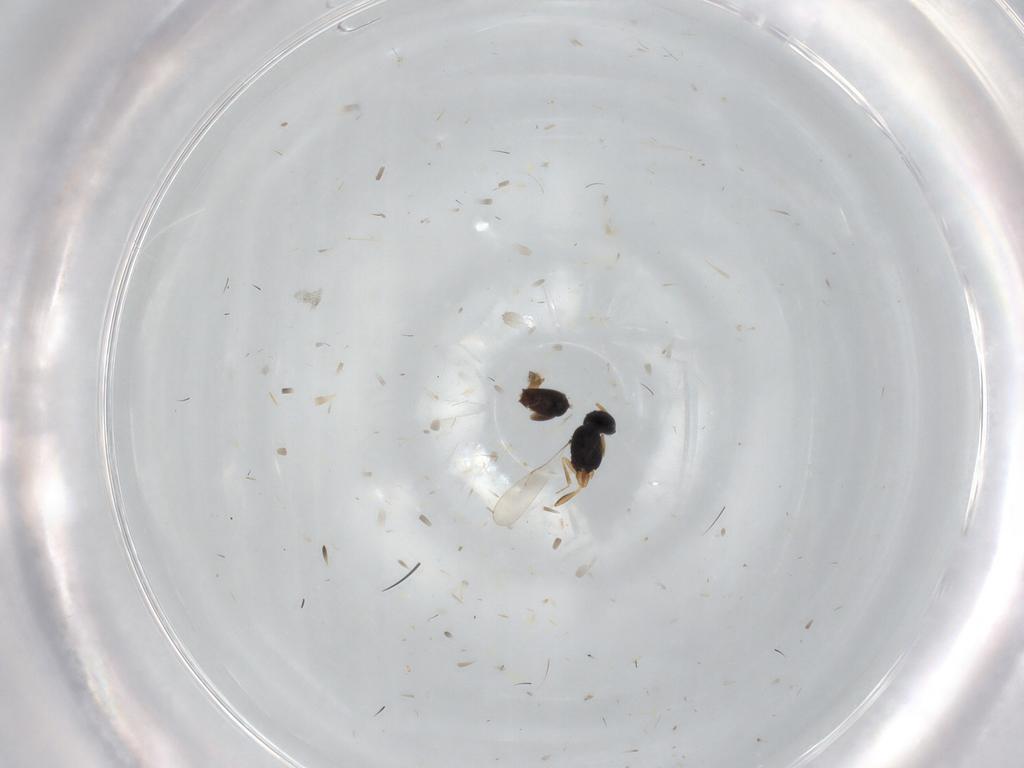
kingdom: Animalia
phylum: Arthropoda
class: Insecta
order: Hymenoptera
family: Scelionidae
